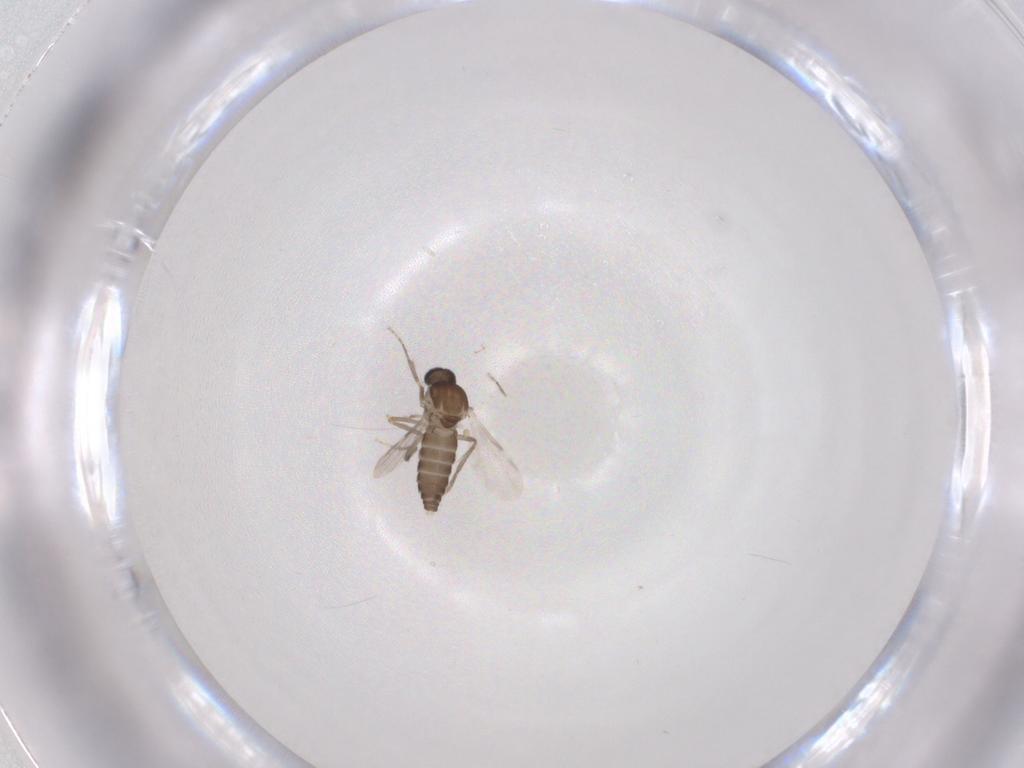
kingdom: Animalia
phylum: Arthropoda
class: Insecta
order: Diptera
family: Ceratopogonidae
